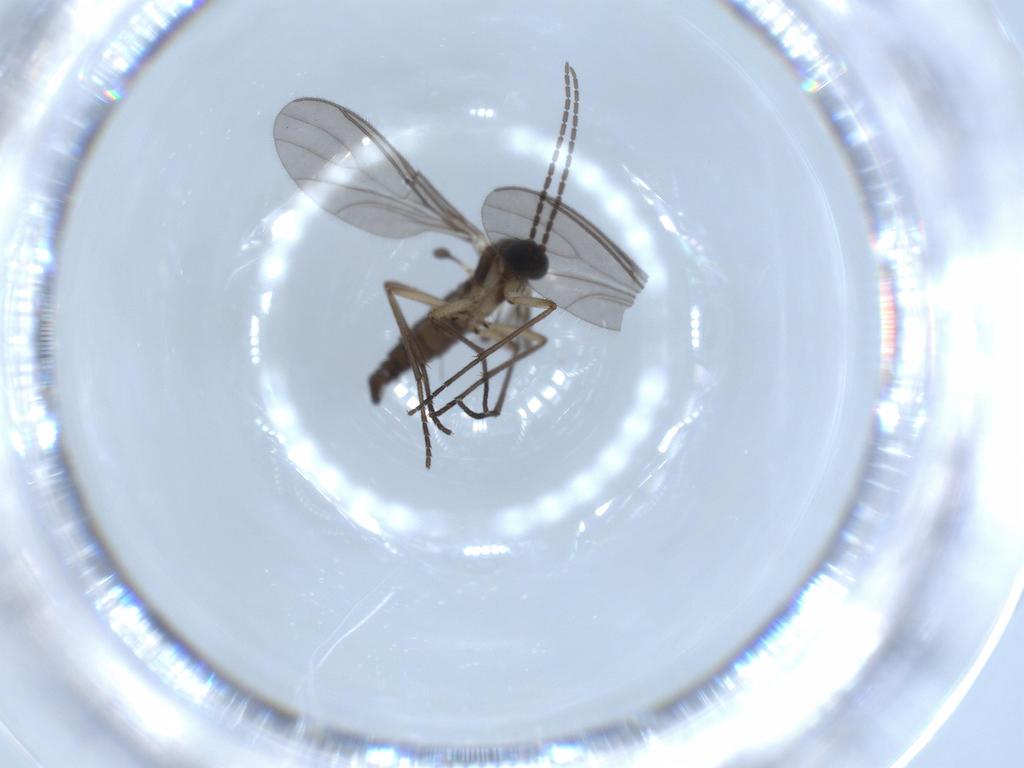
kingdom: Animalia
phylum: Arthropoda
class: Insecta
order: Diptera
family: Sciaridae
